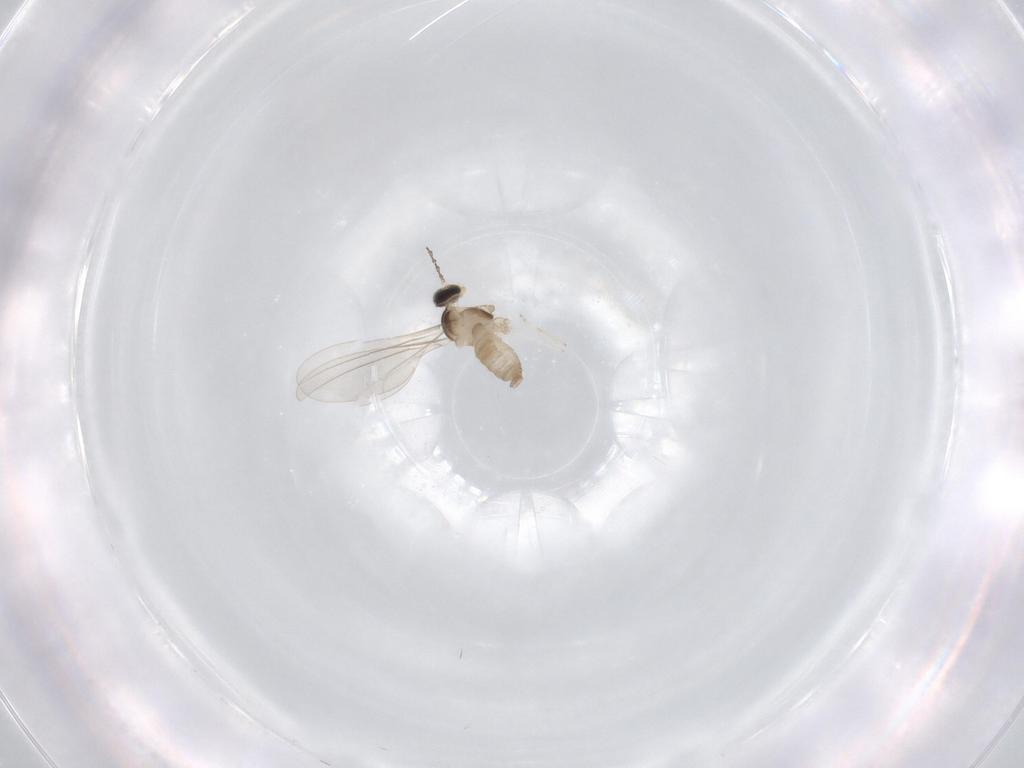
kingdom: Animalia
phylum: Arthropoda
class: Insecta
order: Diptera
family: Cecidomyiidae
